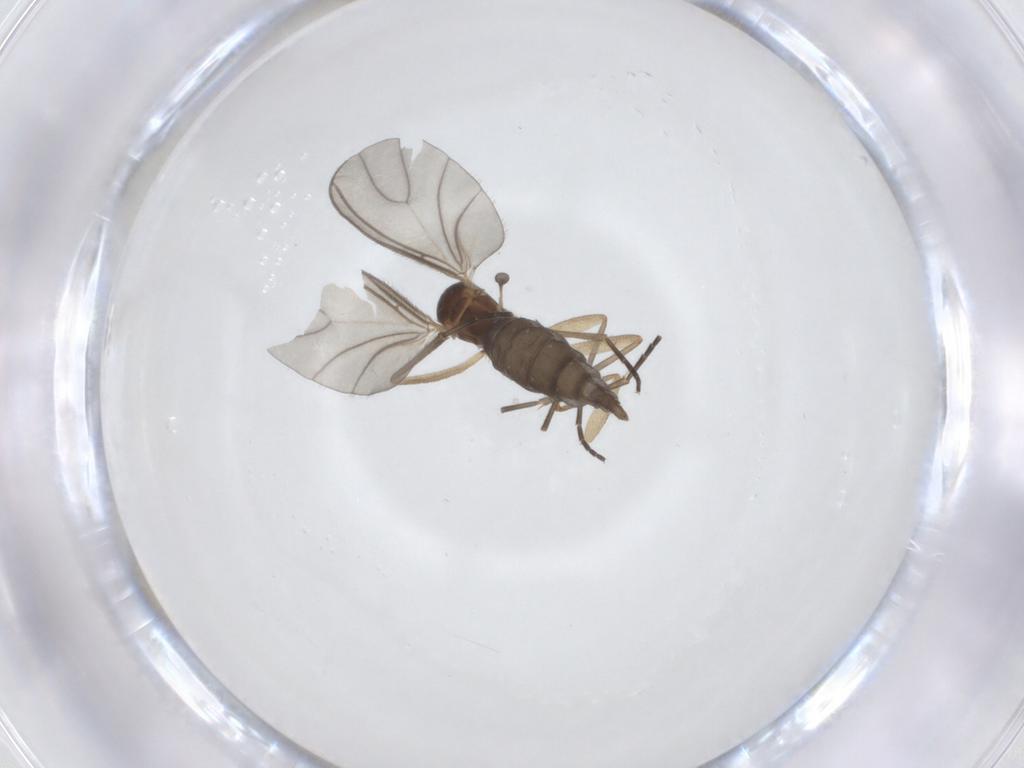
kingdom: Animalia
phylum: Arthropoda
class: Insecta
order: Diptera
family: Sciaridae
